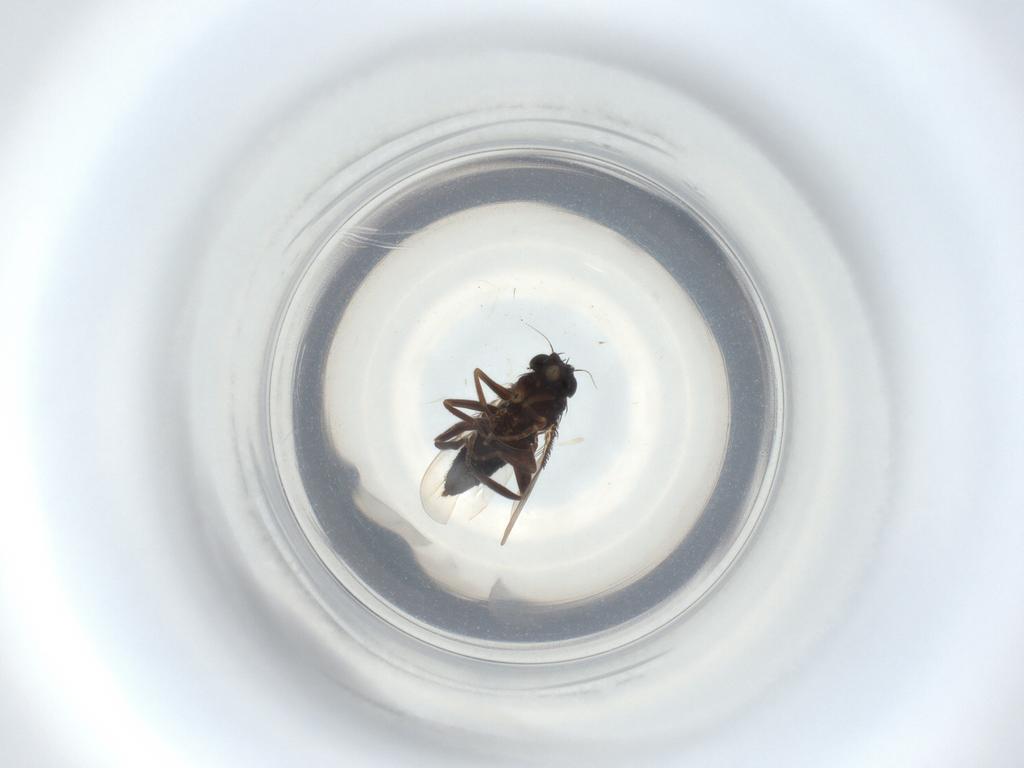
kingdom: Animalia
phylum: Arthropoda
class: Insecta
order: Diptera
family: Phoridae
